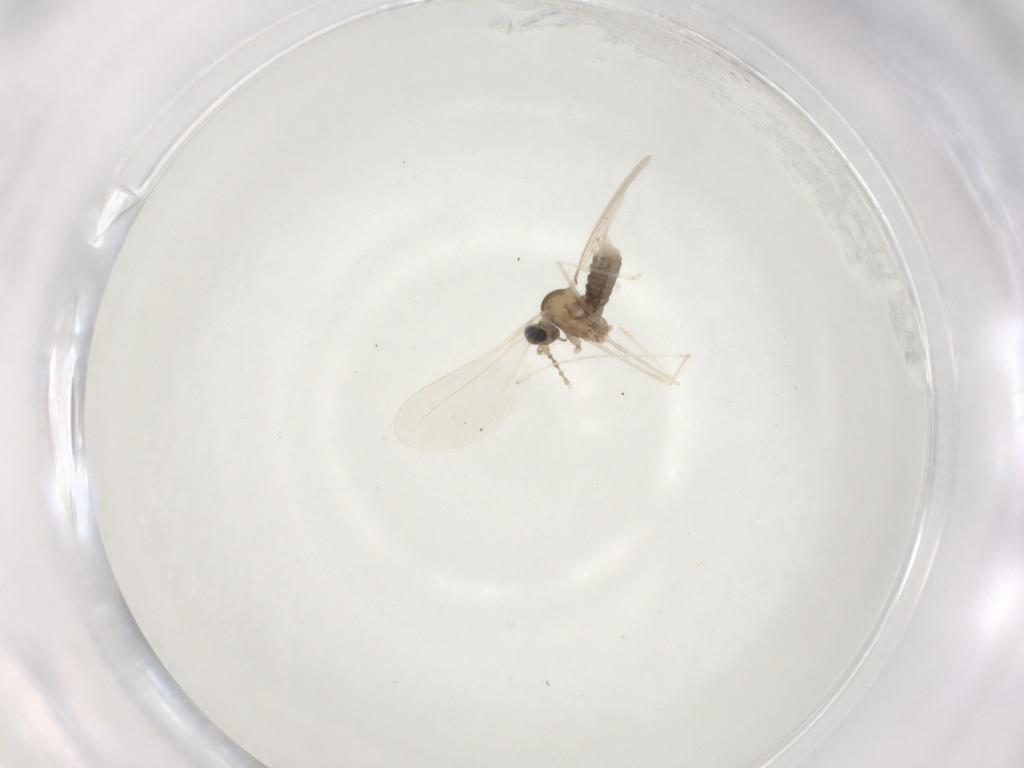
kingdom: Animalia
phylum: Arthropoda
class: Insecta
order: Diptera
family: Cecidomyiidae
